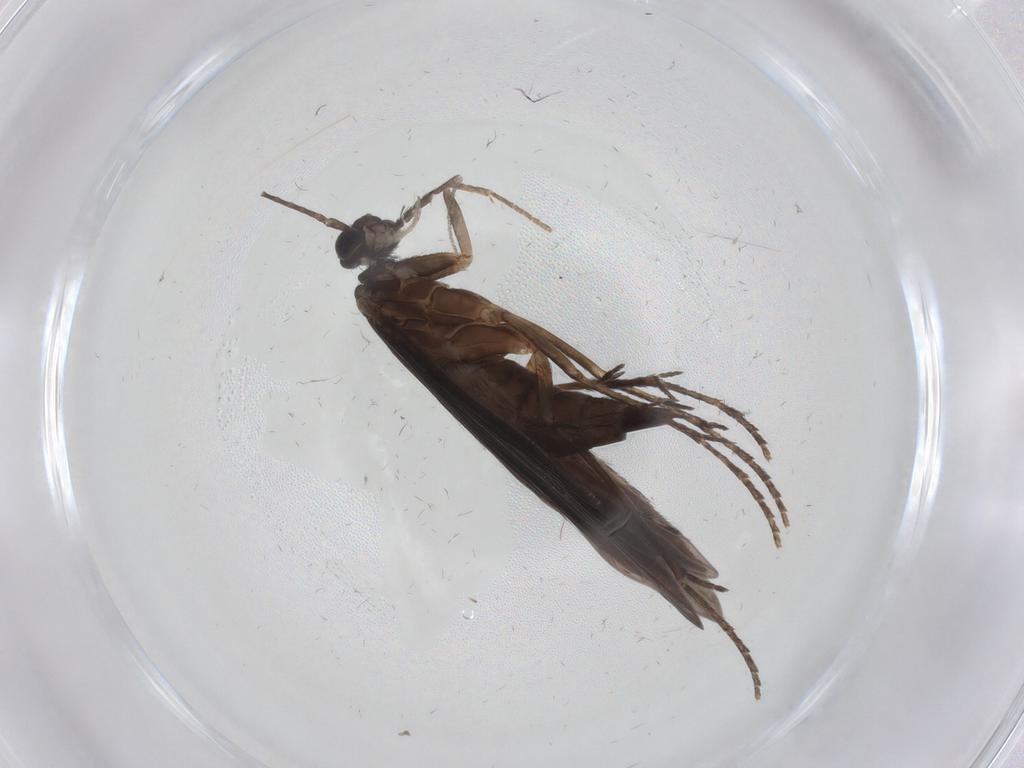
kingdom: Animalia
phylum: Arthropoda
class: Insecta
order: Trichoptera
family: Xiphocentronidae
